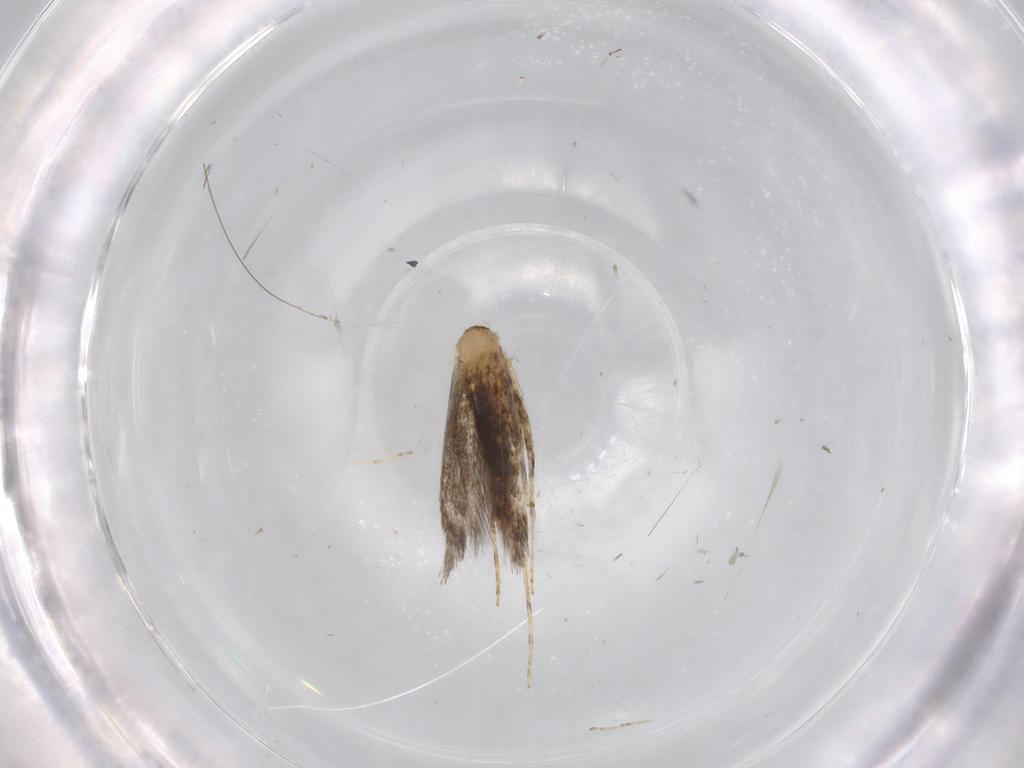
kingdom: Animalia
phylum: Arthropoda
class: Insecta
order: Lepidoptera
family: Gracillariidae
